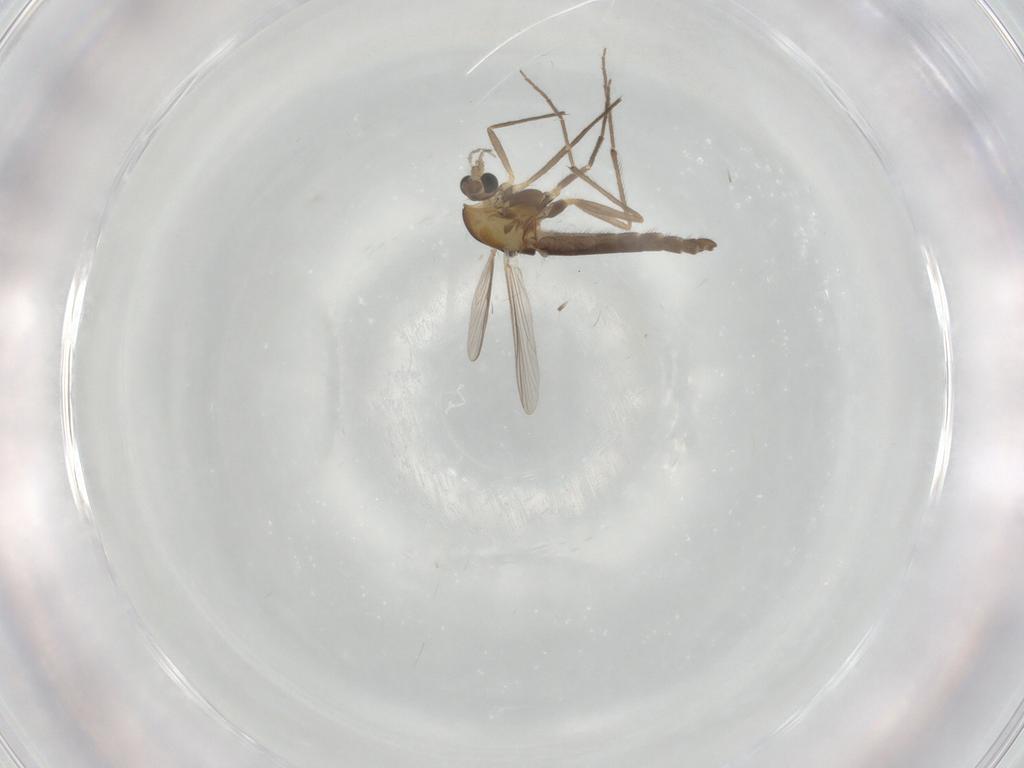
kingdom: Animalia
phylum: Arthropoda
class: Insecta
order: Diptera
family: Chironomidae
